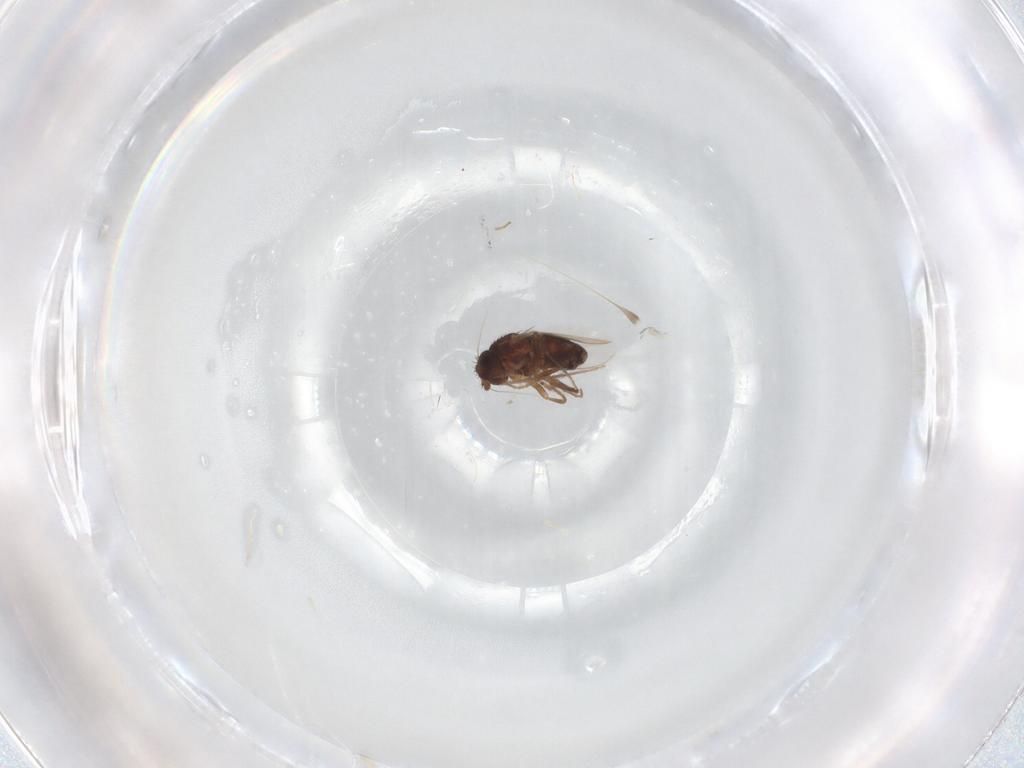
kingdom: Animalia
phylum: Arthropoda
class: Insecta
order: Diptera
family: Sphaeroceridae
